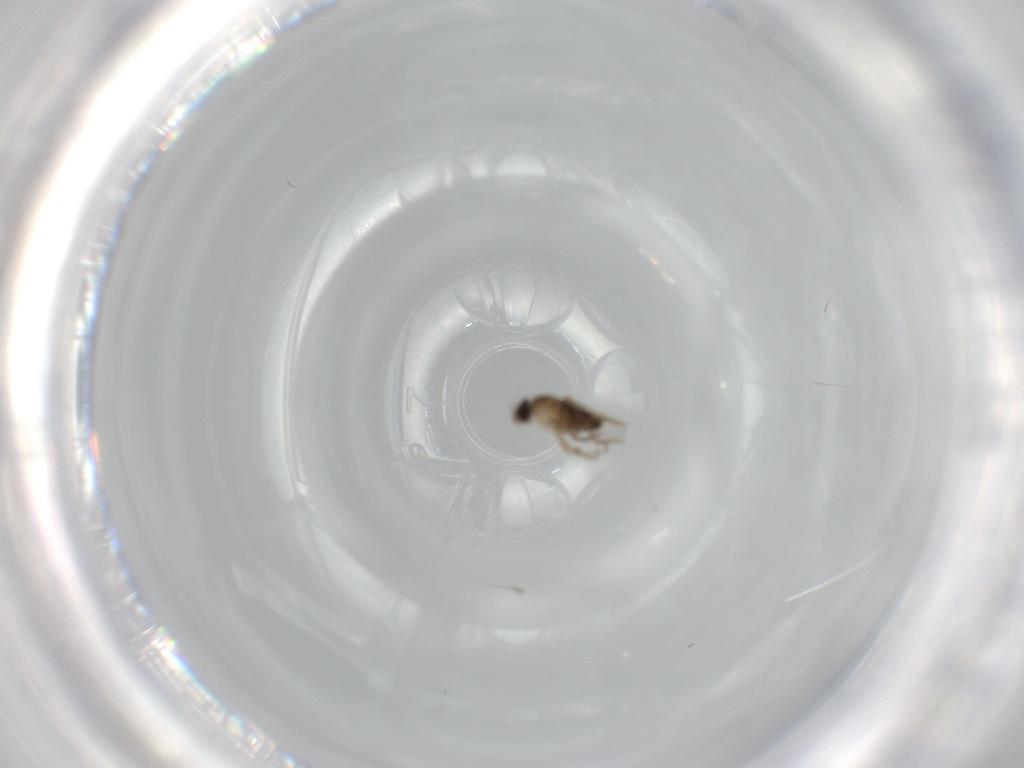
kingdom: Animalia
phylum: Arthropoda
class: Insecta
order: Diptera
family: Phoridae
